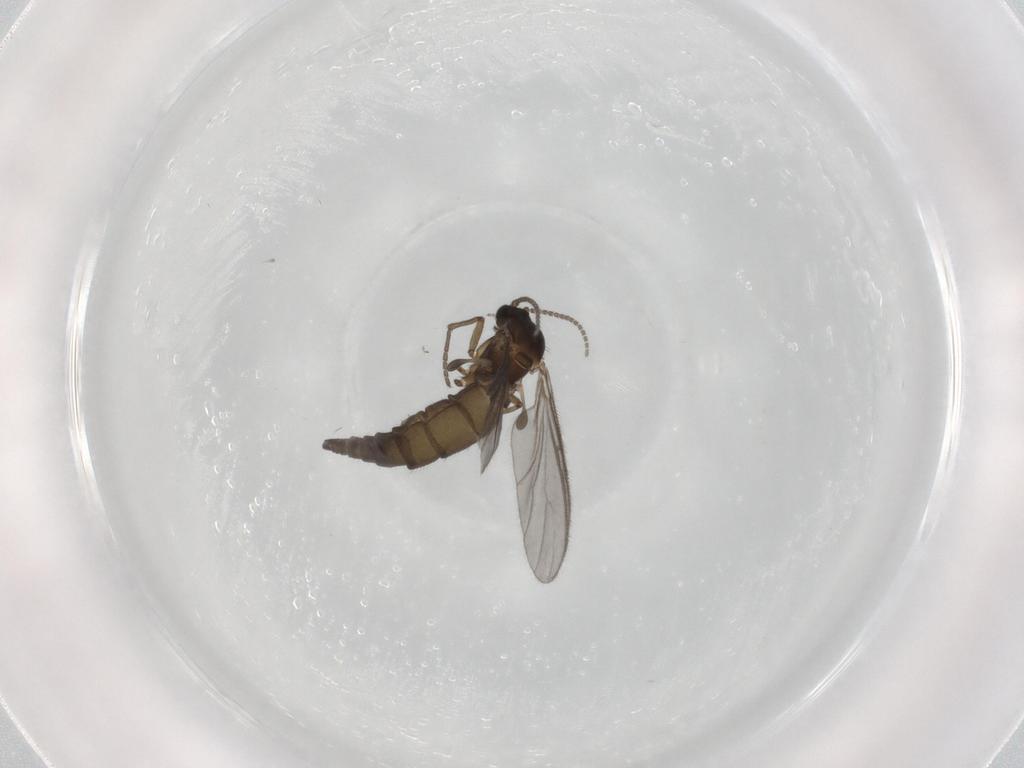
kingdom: Animalia
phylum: Arthropoda
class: Insecta
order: Diptera
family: Sciaridae
